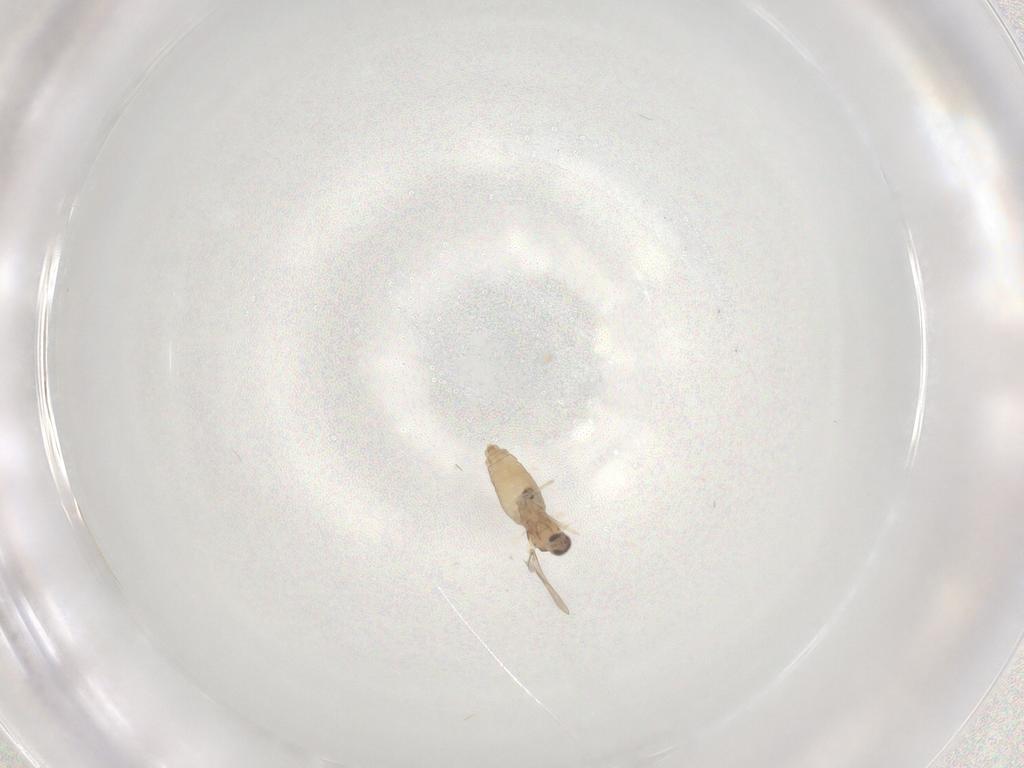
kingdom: Animalia
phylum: Arthropoda
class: Insecta
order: Diptera
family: Cecidomyiidae
